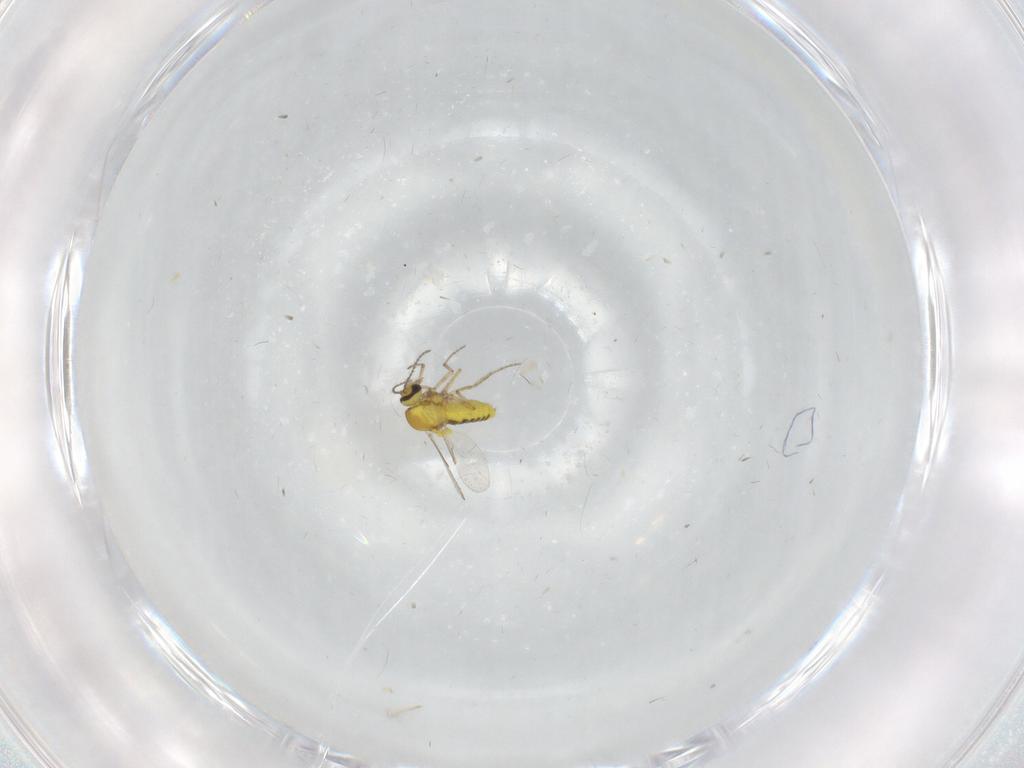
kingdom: Animalia
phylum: Arthropoda
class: Insecta
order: Diptera
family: Ceratopogonidae
